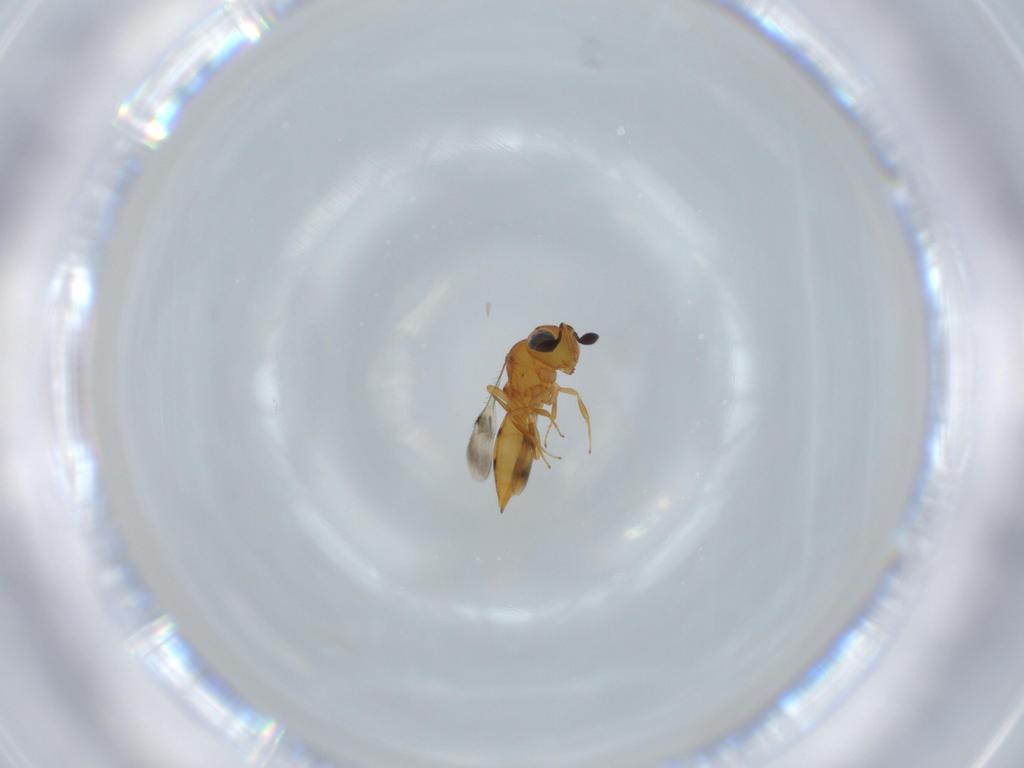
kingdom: Animalia
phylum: Arthropoda
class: Insecta
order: Hymenoptera
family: Scelionidae
